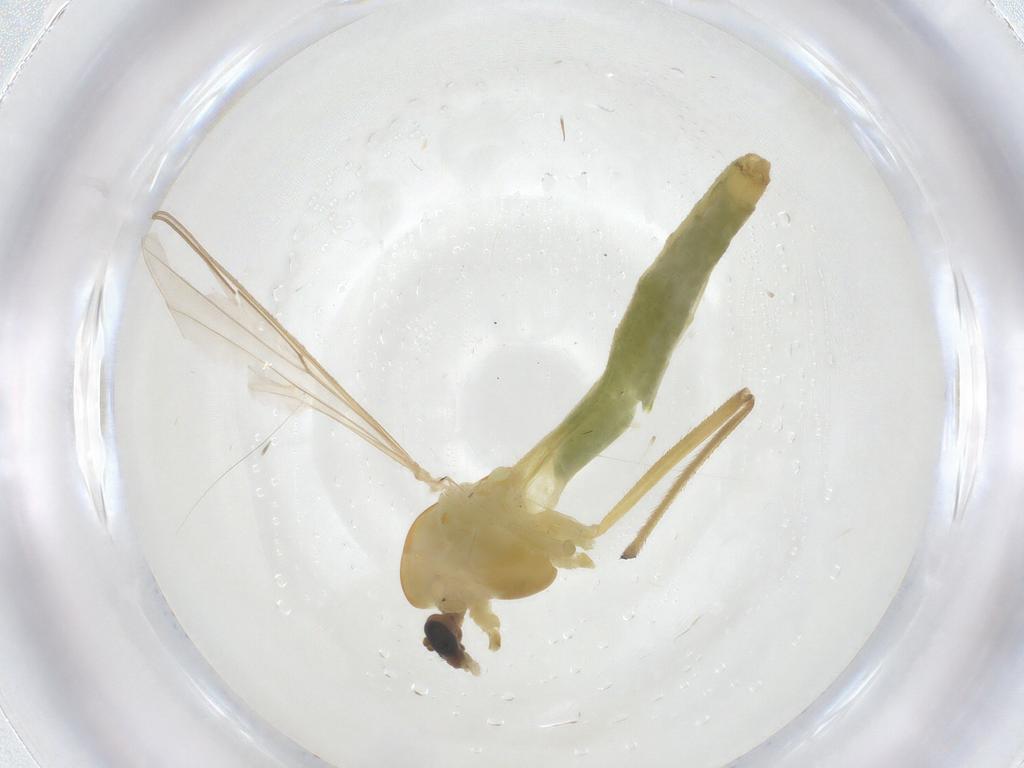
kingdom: Animalia
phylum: Arthropoda
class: Insecta
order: Diptera
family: Chironomidae
